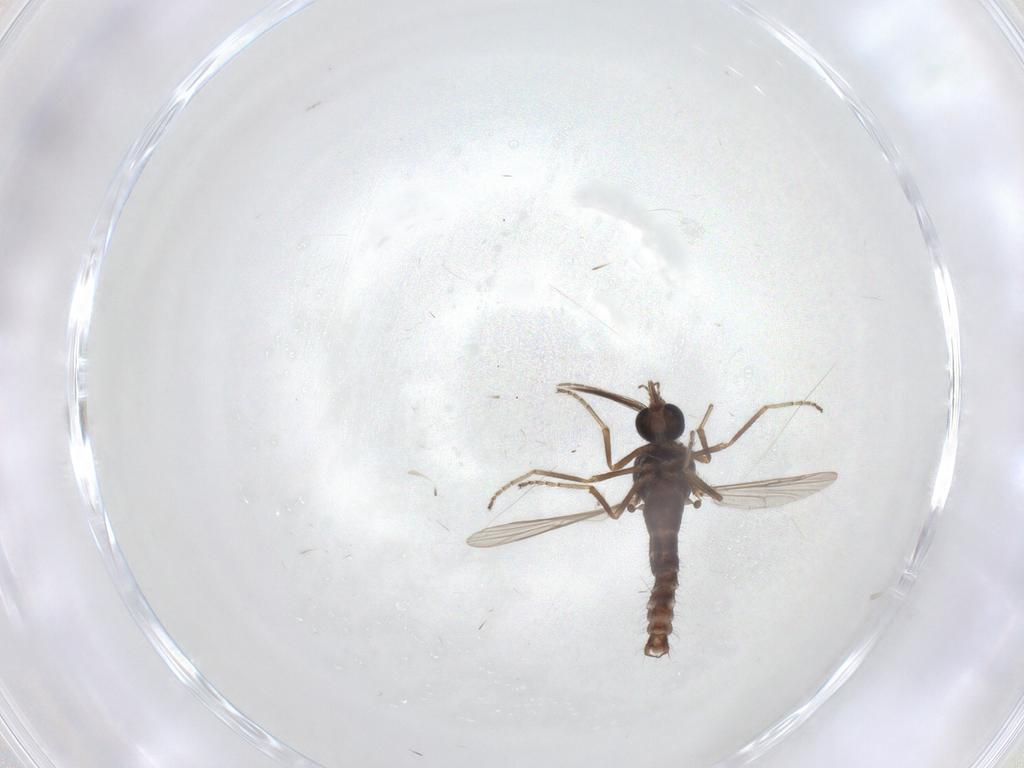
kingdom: Animalia
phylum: Arthropoda
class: Insecta
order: Diptera
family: Ceratopogonidae
